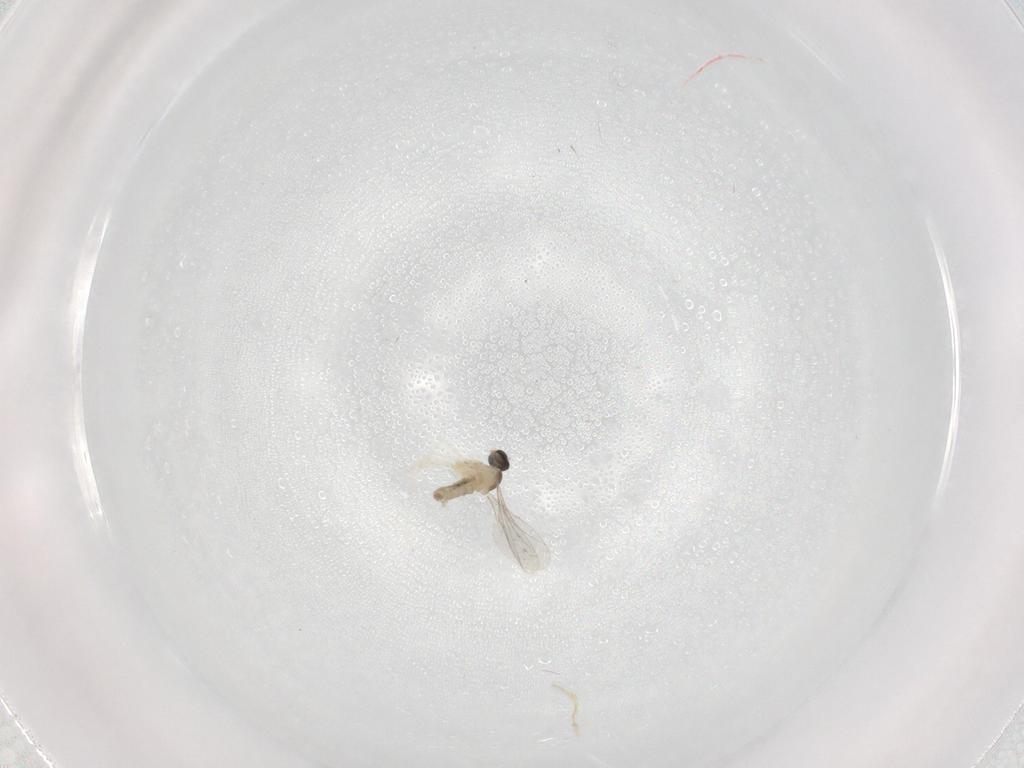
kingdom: Animalia
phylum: Arthropoda
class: Insecta
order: Diptera
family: Cecidomyiidae
